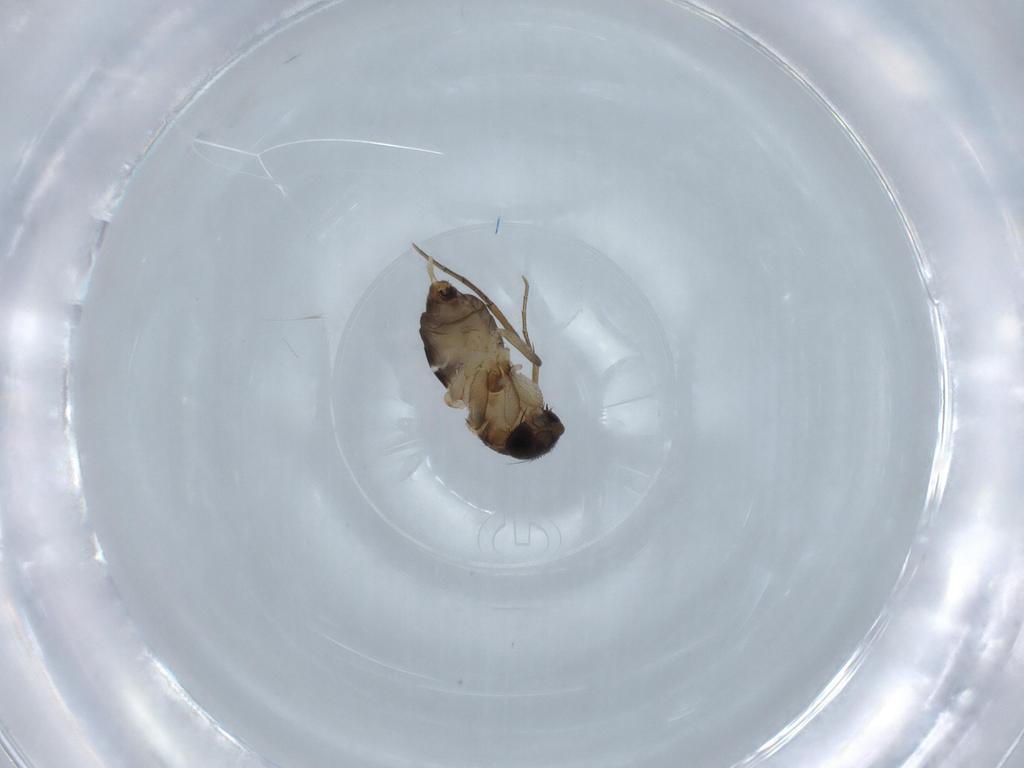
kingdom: Animalia
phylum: Arthropoda
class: Insecta
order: Diptera
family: Phoridae
